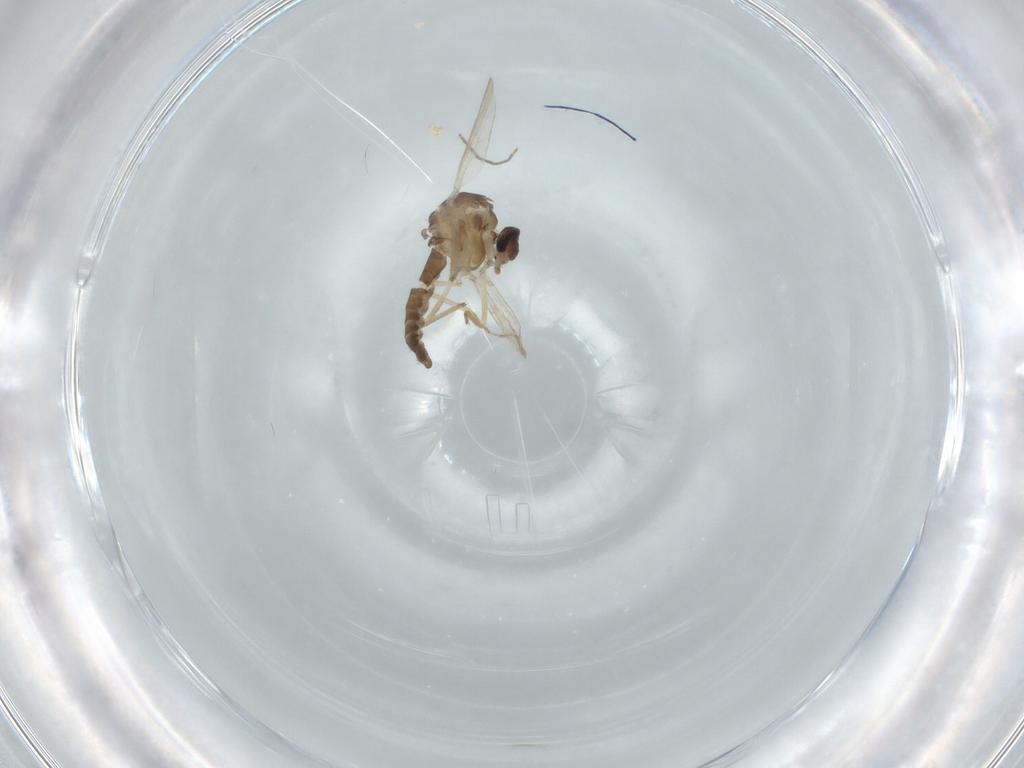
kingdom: Animalia
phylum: Arthropoda
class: Insecta
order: Diptera
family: Ceratopogonidae
